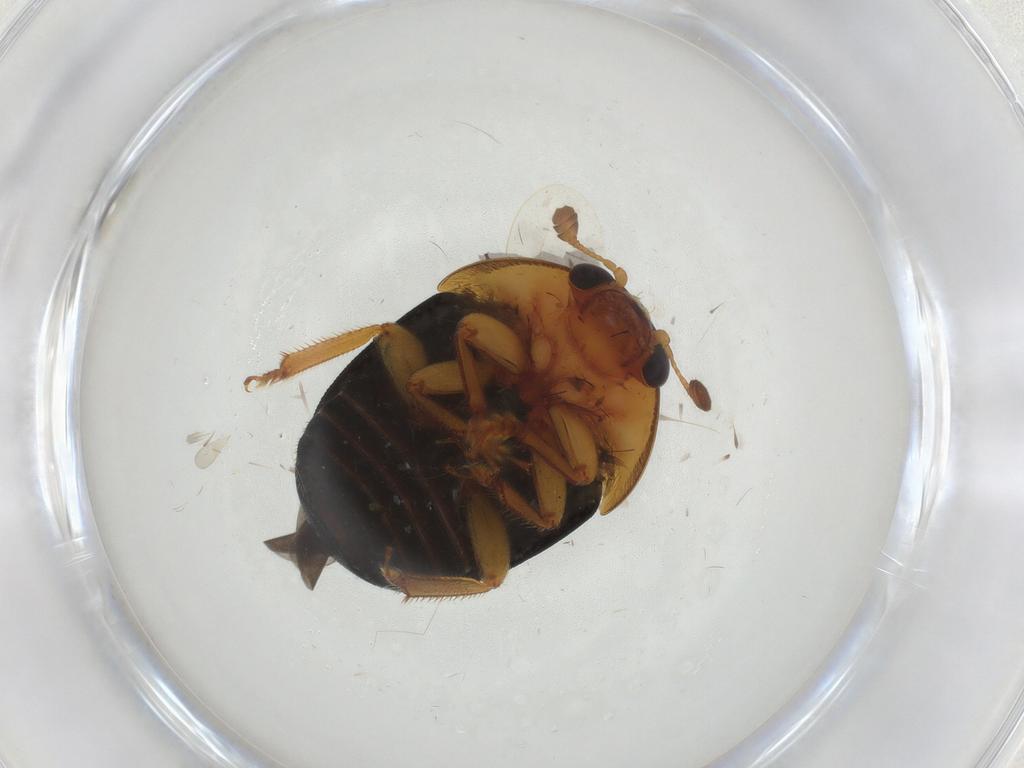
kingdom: Animalia
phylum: Arthropoda
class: Insecta
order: Coleoptera
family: Nitidulidae
